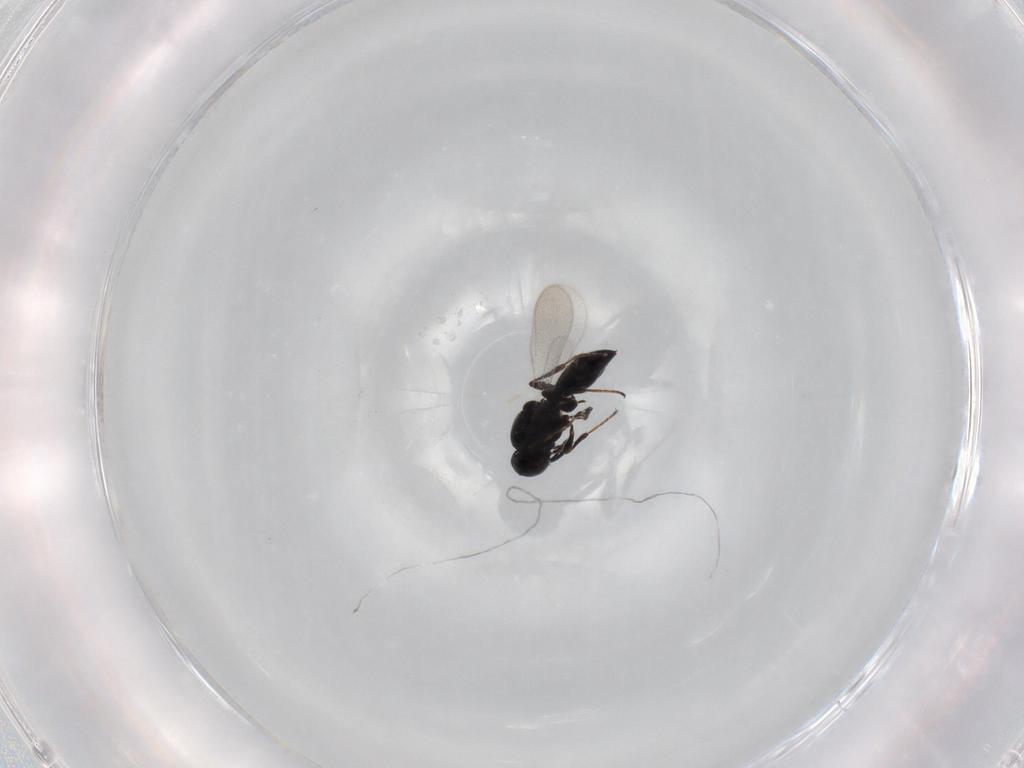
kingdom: Animalia
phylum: Arthropoda
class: Insecta
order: Hymenoptera
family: Platygastridae
